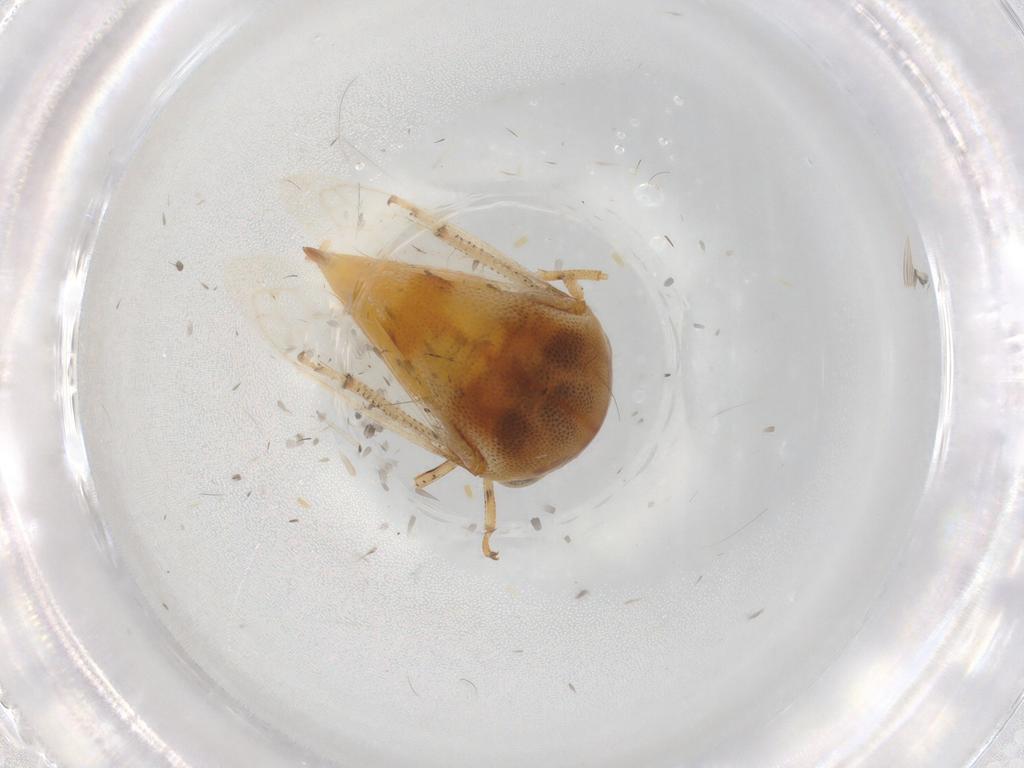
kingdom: Animalia
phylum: Arthropoda
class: Insecta
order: Hemiptera
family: Membracidae
